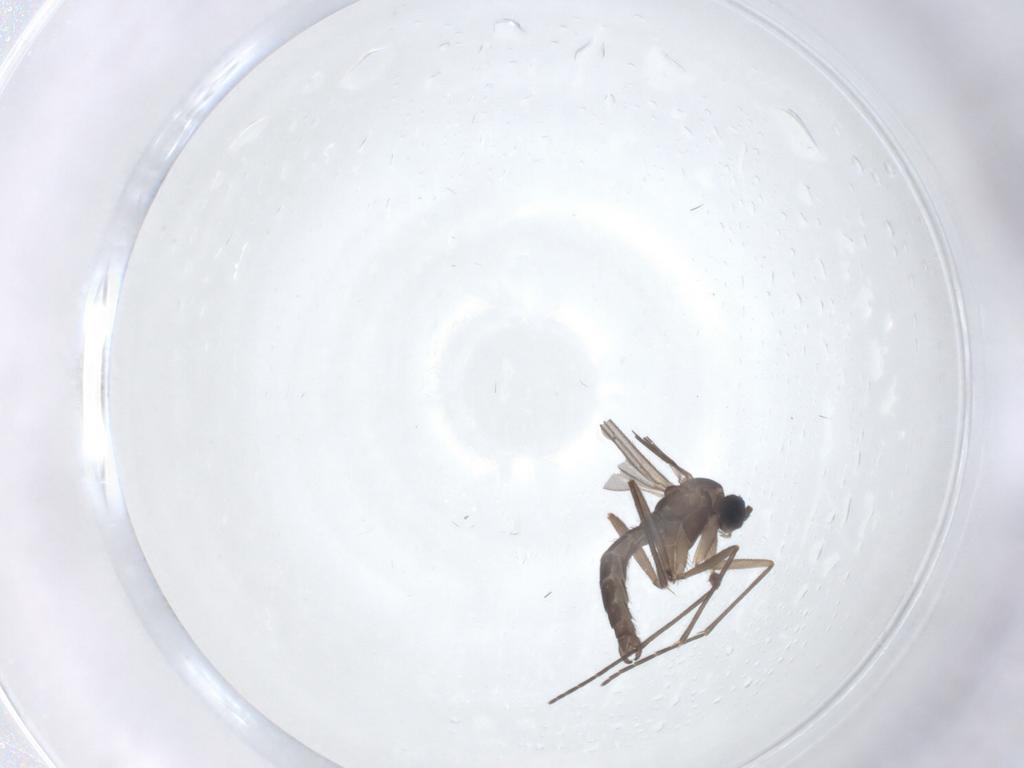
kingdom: Animalia
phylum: Arthropoda
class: Insecta
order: Diptera
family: Sciaridae
